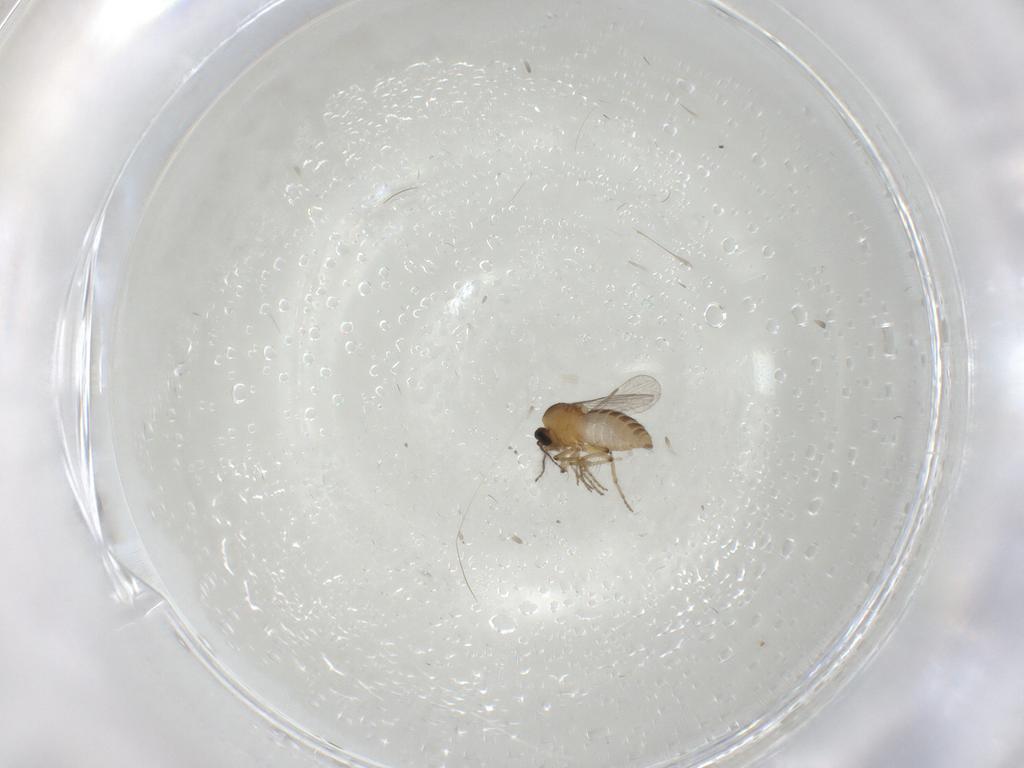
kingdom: Animalia
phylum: Arthropoda
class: Insecta
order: Diptera
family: Ceratopogonidae
